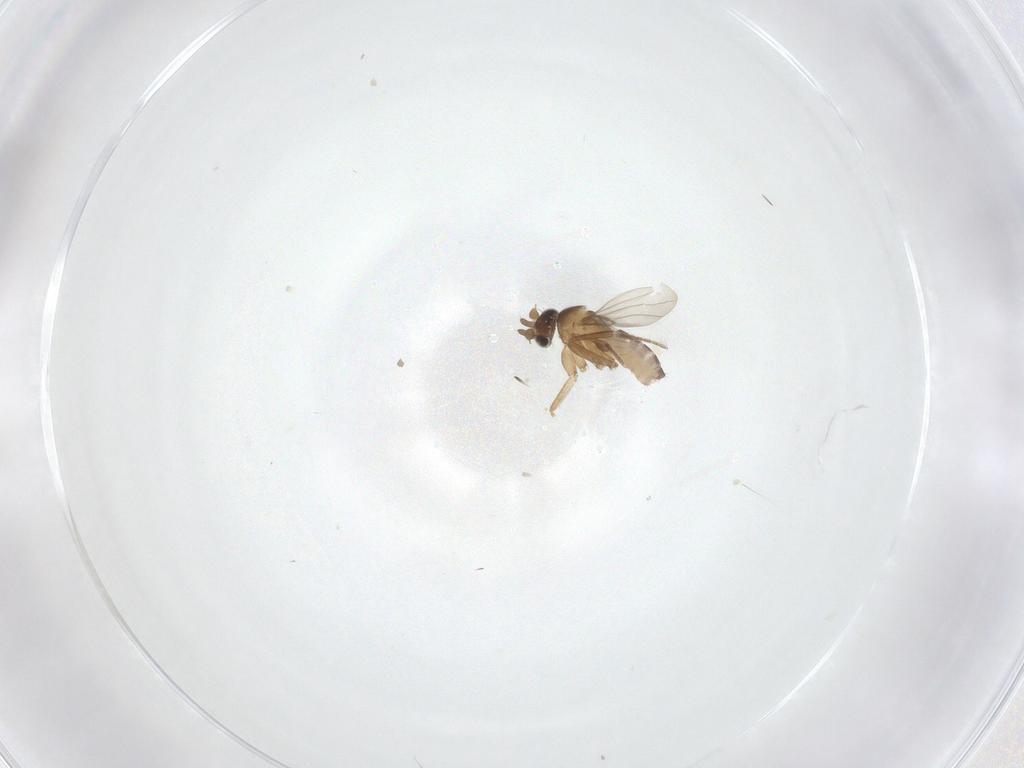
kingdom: Animalia
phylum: Arthropoda
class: Insecta
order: Diptera
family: Phoridae
